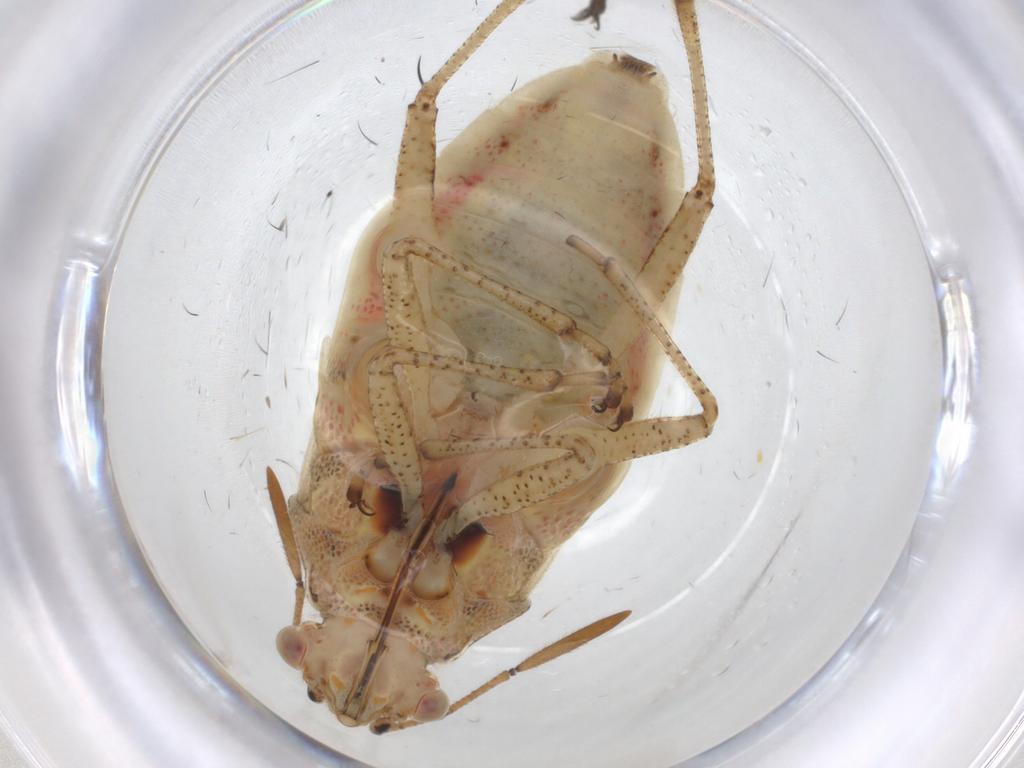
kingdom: Animalia
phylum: Arthropoda
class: Insecta
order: Hemiptera
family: Rhopalidae
